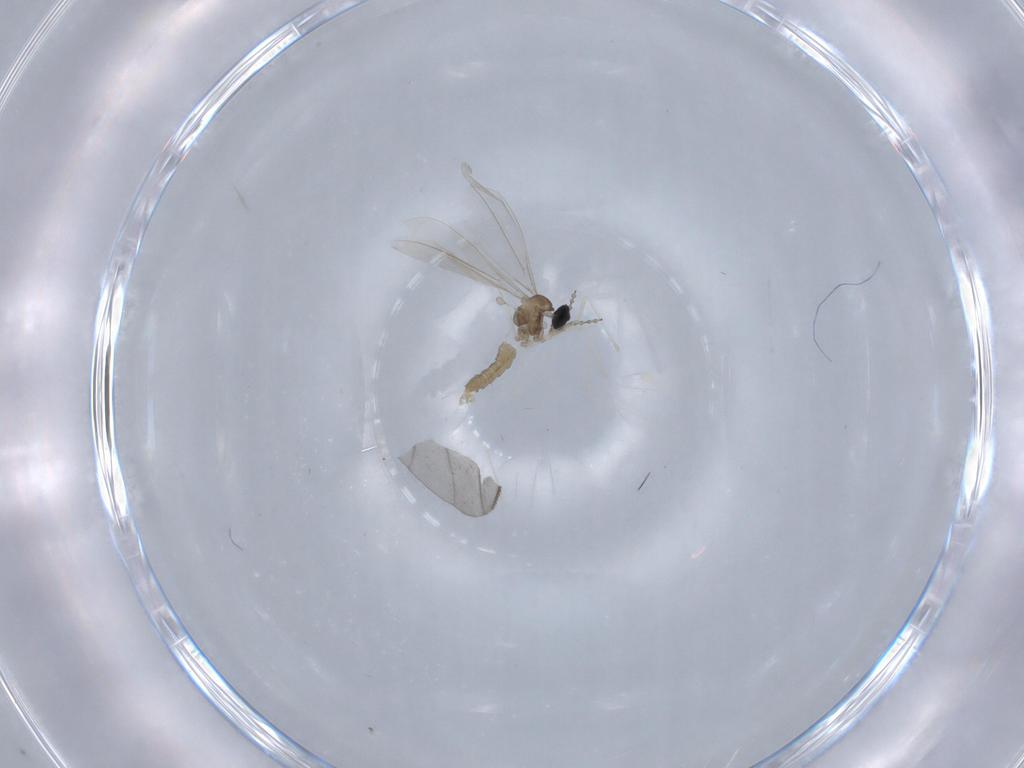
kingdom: Animalia
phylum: Arthropoda
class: Insecta
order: Diptera
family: Cecidomyiidae
